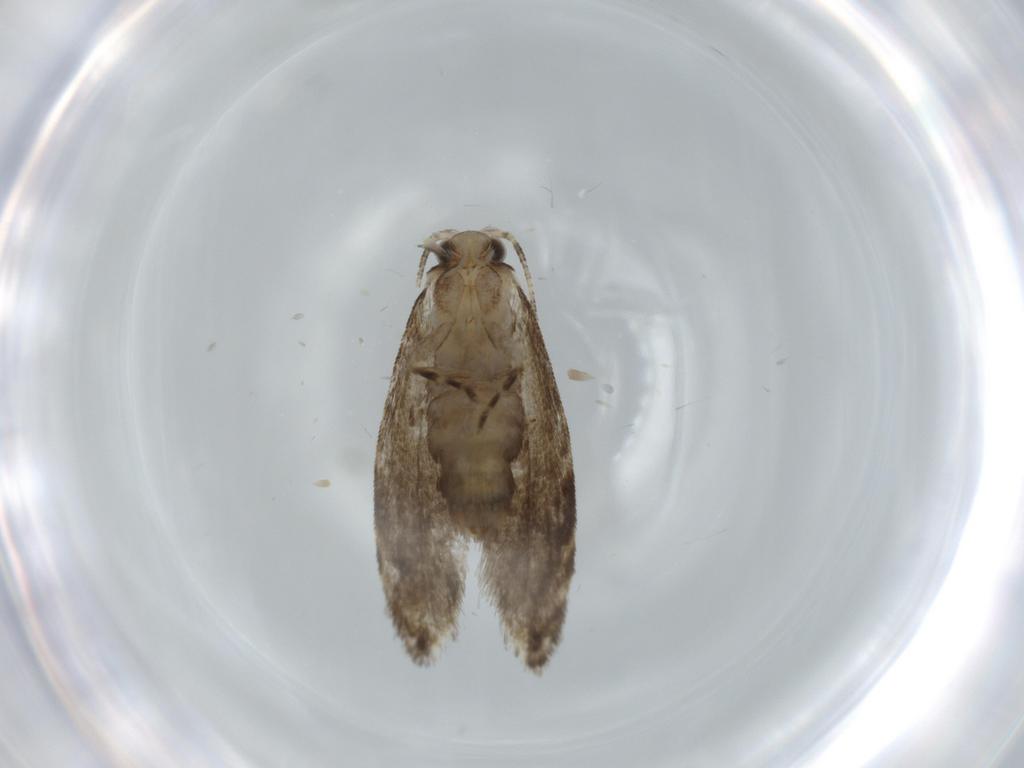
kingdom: Animalia
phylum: Arthropoda
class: Insecta
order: Lepidoptera
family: Tineidae
